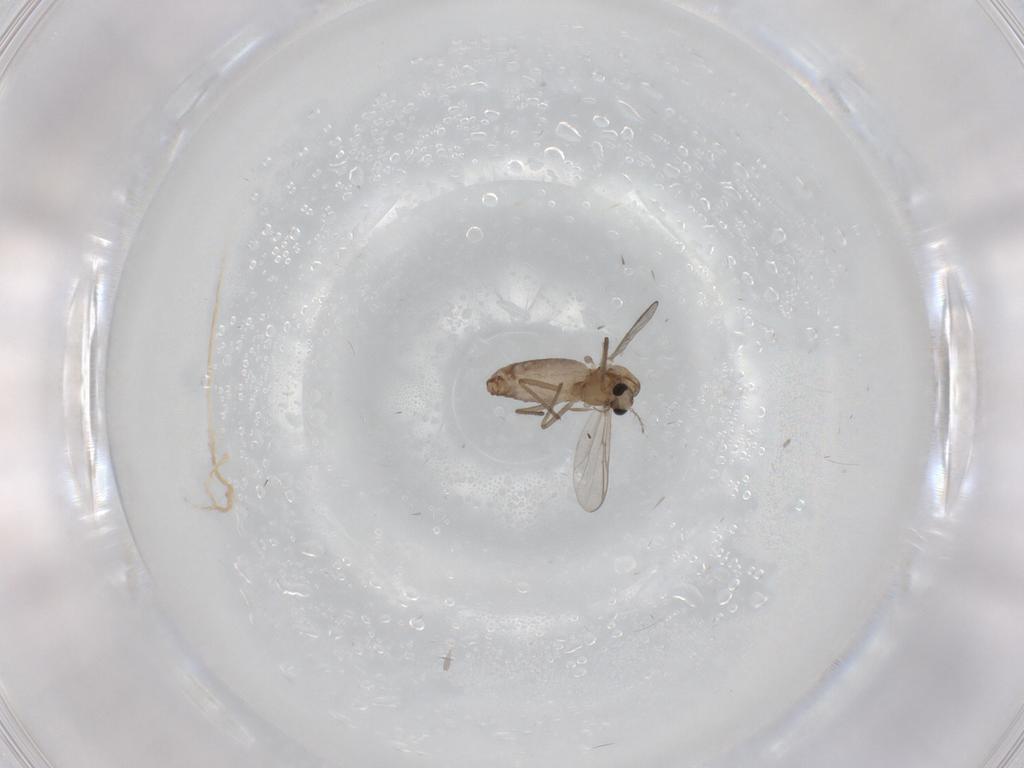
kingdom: Animalia
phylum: Arthropoda
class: Insecta
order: Diptera
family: Chironomidae
